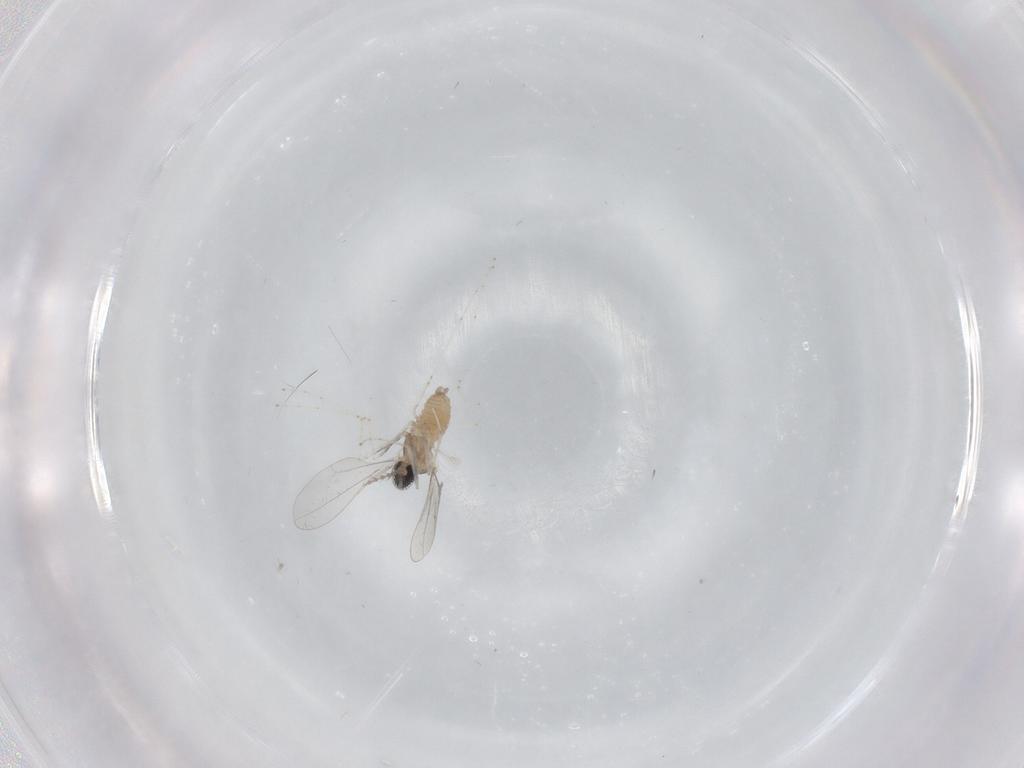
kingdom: Animalia
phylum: Arthropoda
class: Insecta
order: Diptera
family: Cecidomyiidae
